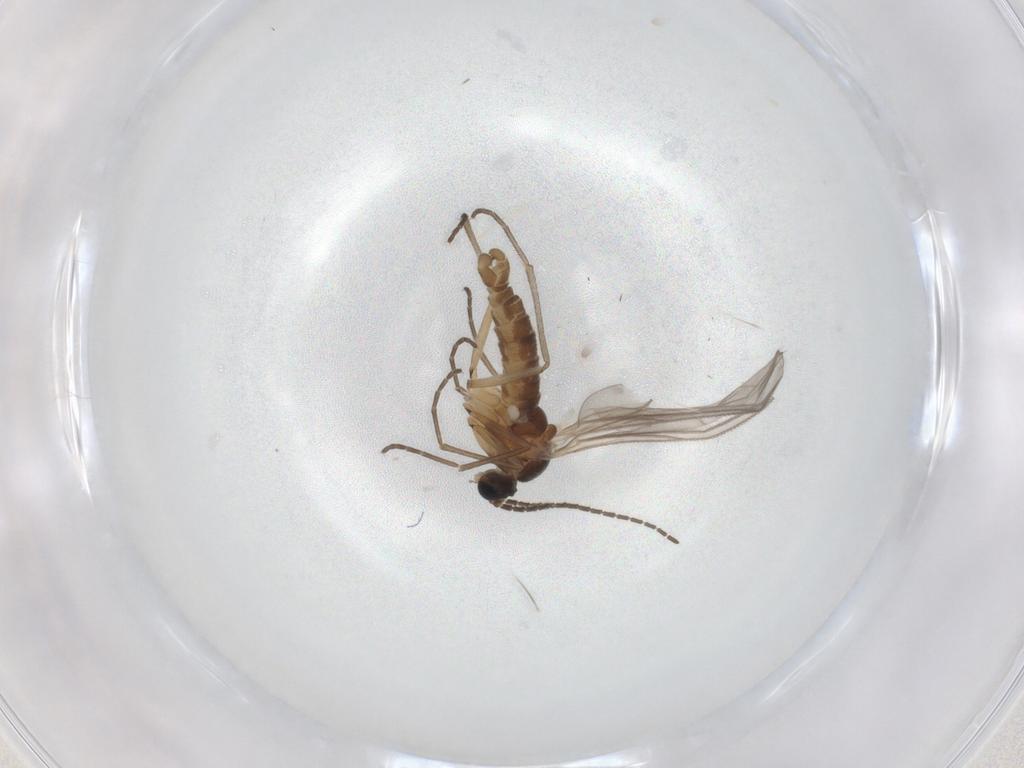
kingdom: Animalia
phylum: Arthropoda
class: Insecta
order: Diptera
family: Sciaridae
